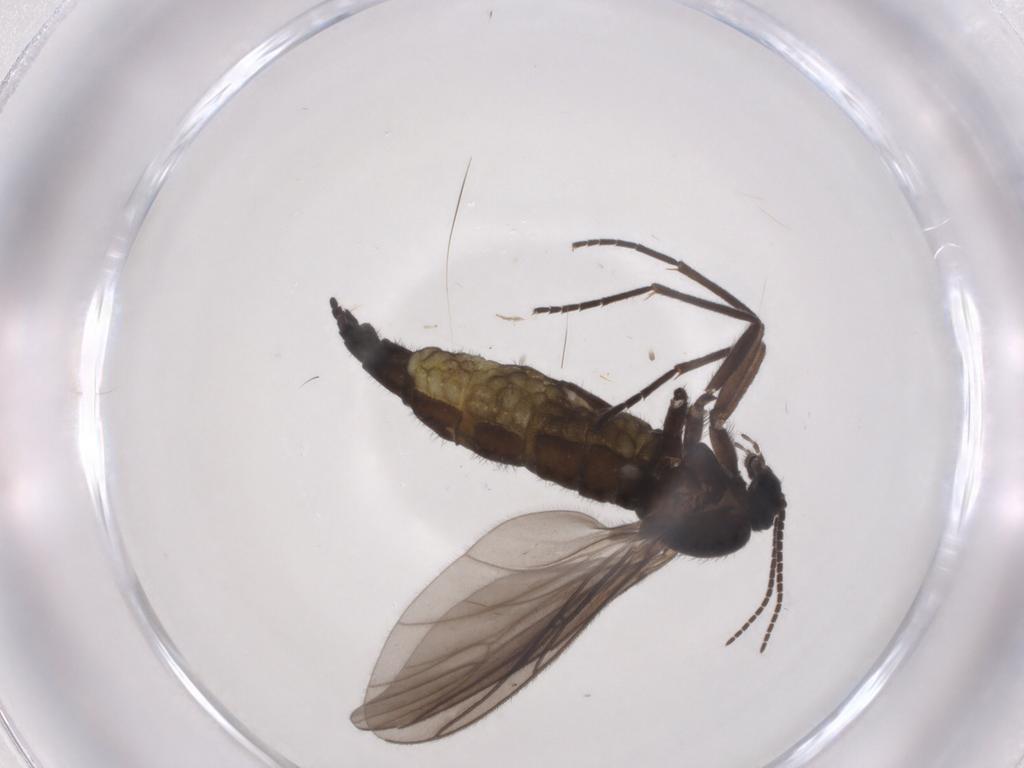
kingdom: Animalia
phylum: Arthropoda
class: Insecta
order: Diptera
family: Sciaridae
